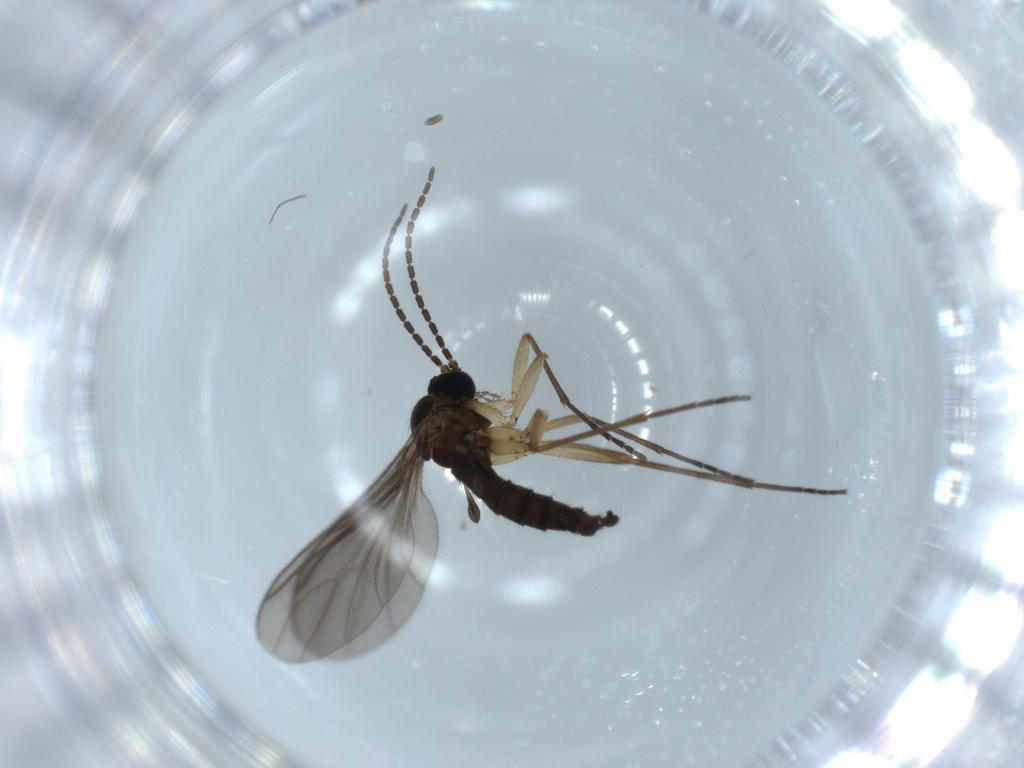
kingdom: Animalia
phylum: Arthropoda
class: Insecta
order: Diptera
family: Sciaridae
